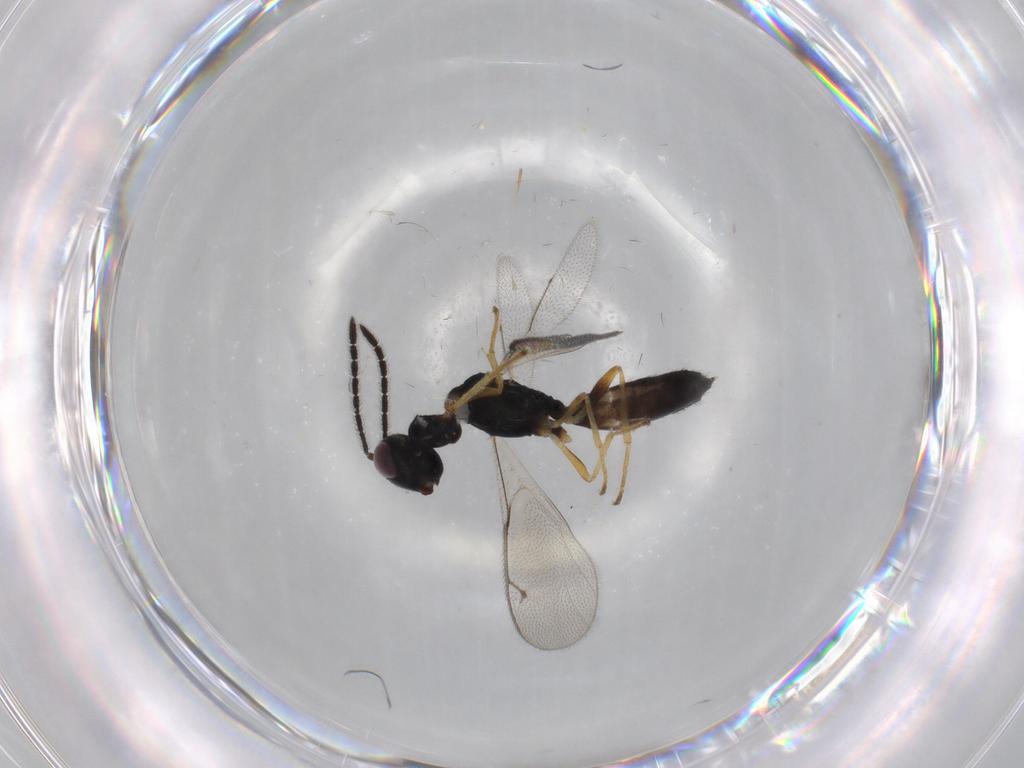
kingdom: Animalia
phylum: Arthropoda
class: Insecta
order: Hymenoptera
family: Pteromalidae
